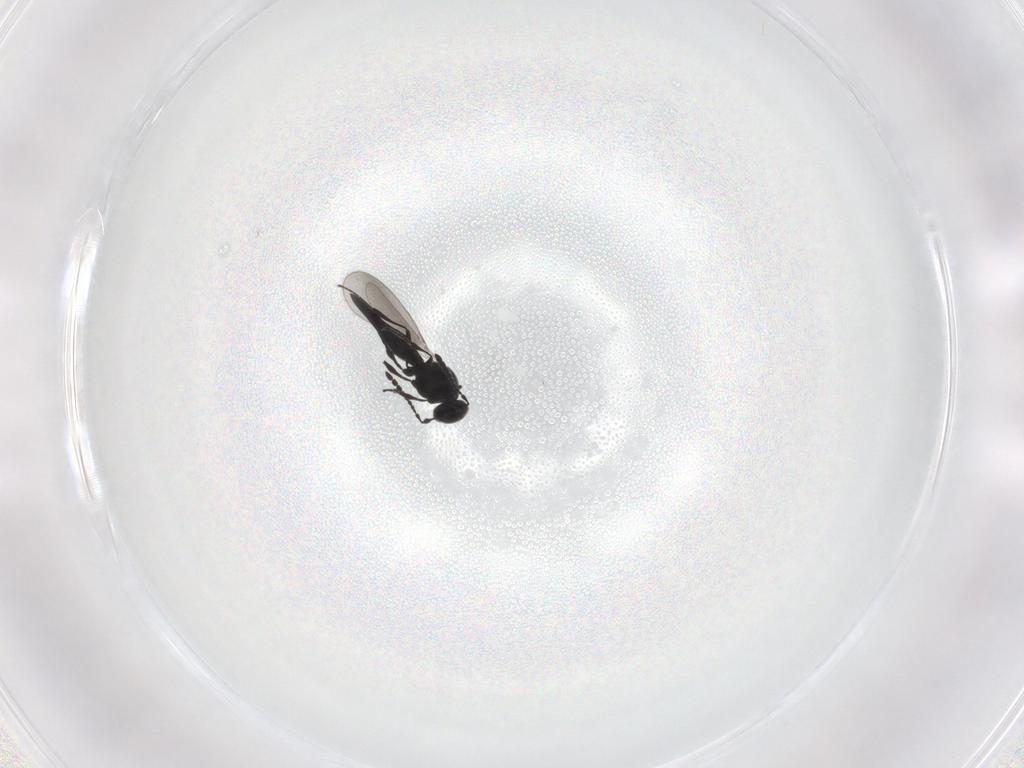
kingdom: Animalia
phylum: Arthropoda
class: Insecta
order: Hymenoptera
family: Platygastridae
